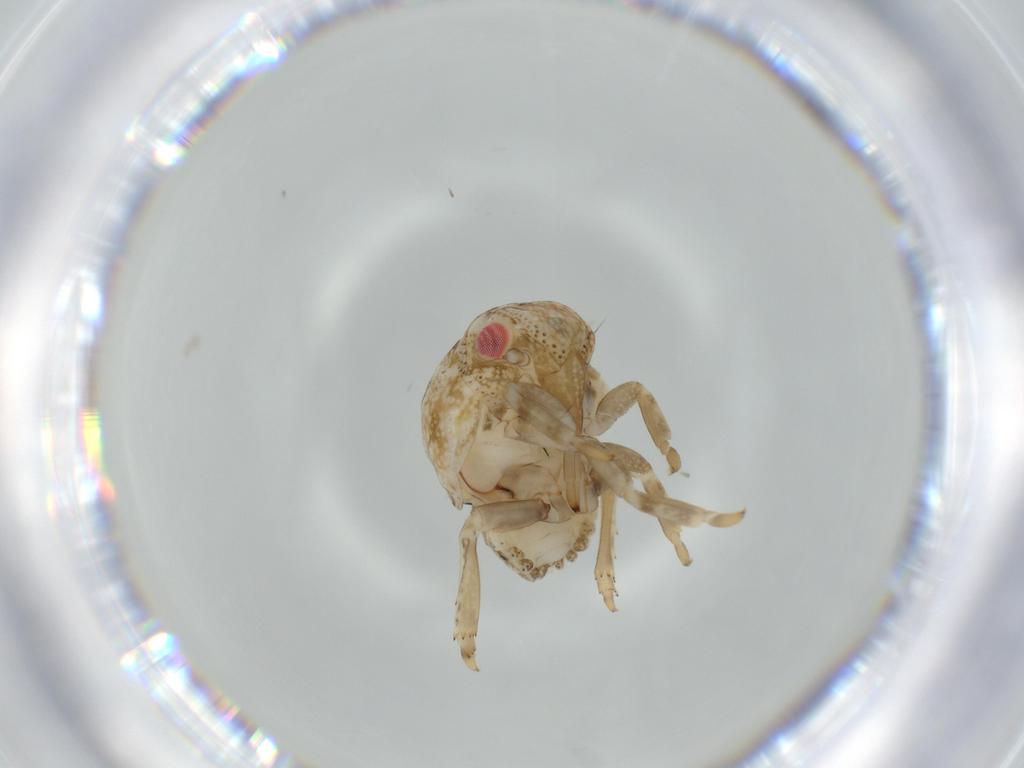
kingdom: Animalia
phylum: Arthropoda
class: Insecta
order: Hemiptera
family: Acanaloniidae
